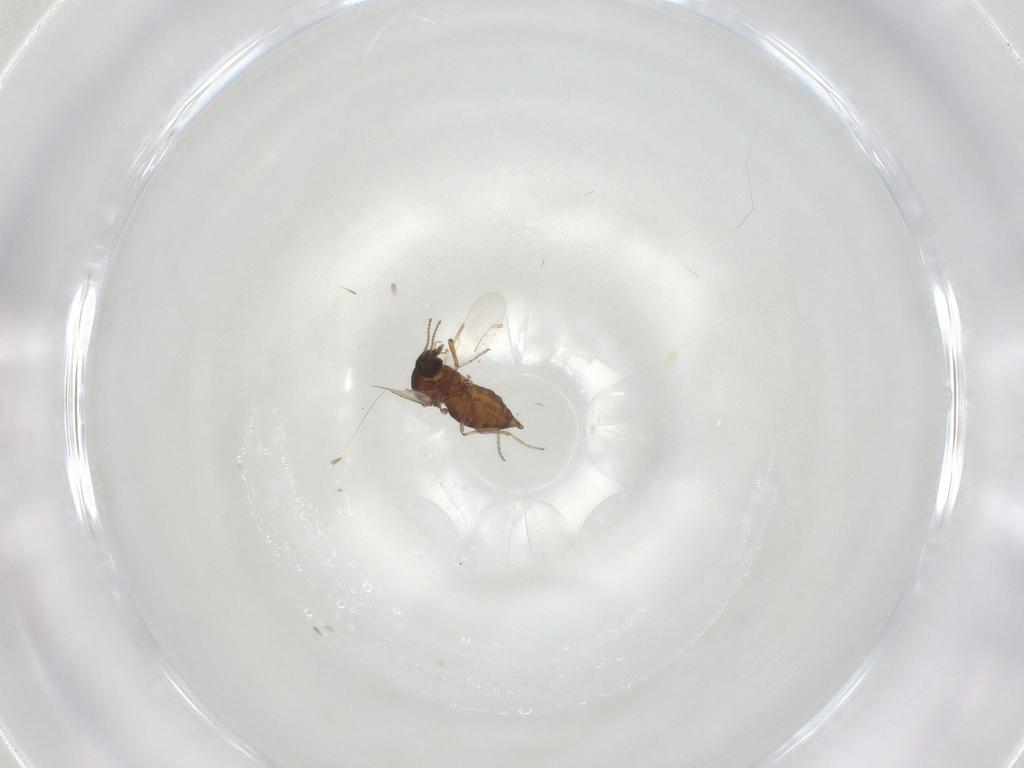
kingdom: Animalia
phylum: Arthropoda
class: Insecta
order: Diptera
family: Ceratopogonidae
